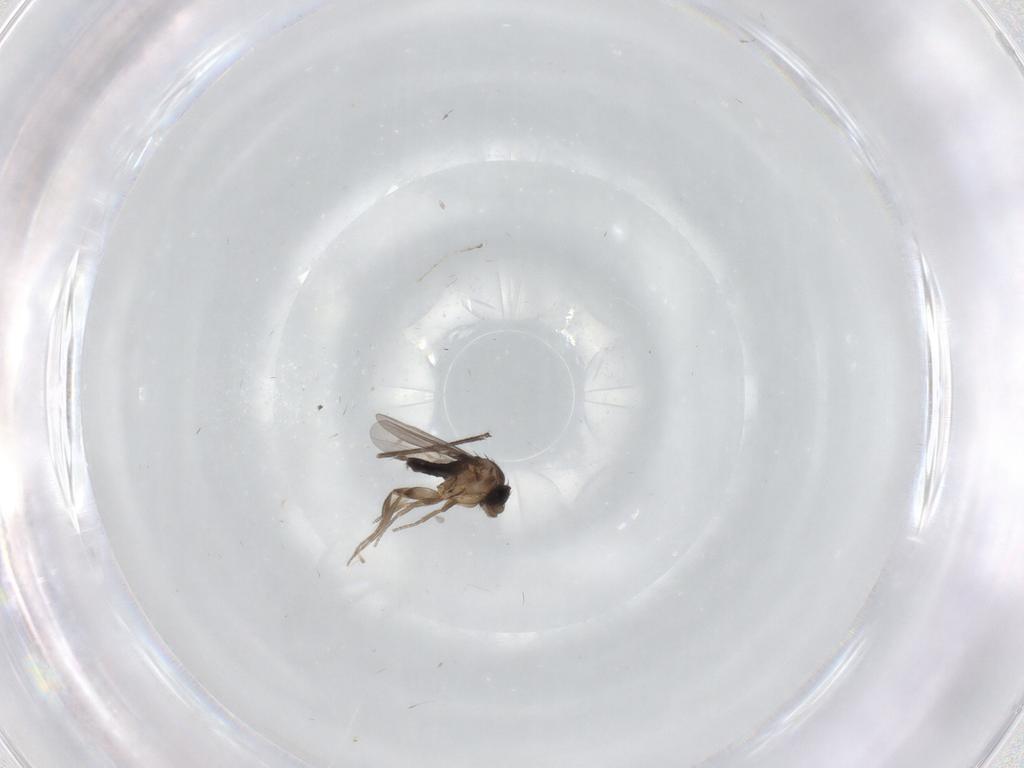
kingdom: Animalia
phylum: Arthropoda
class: Insecta
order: Diptera
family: Phoridae
